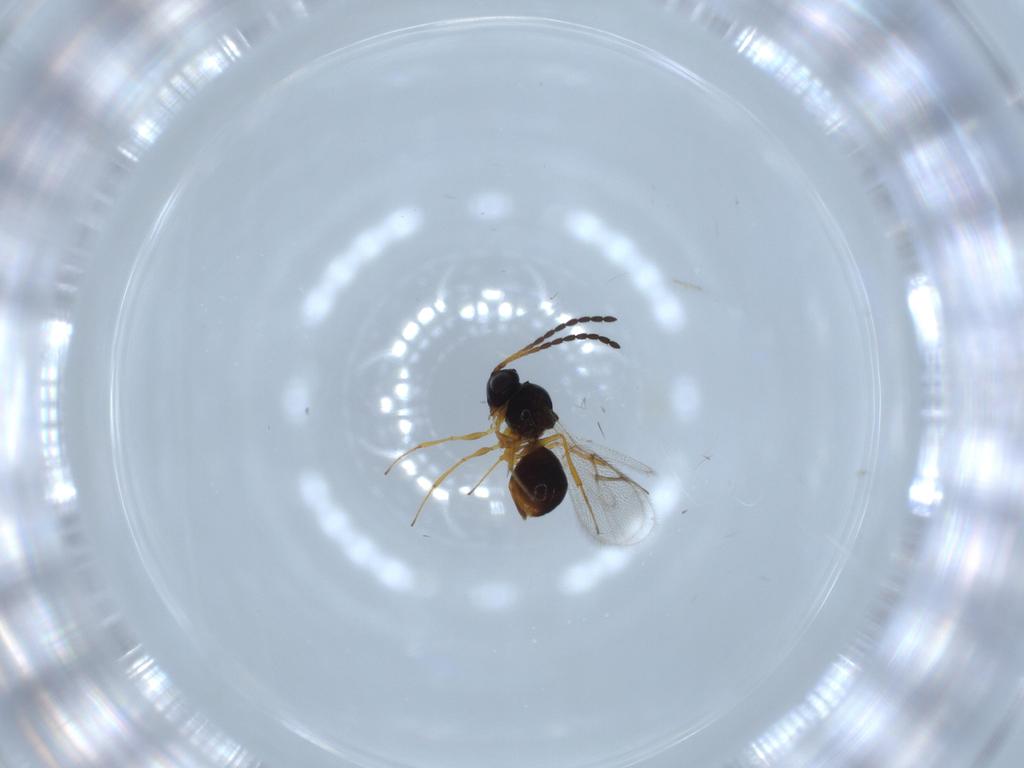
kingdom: Animalia
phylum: Arthropoda
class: Insecta
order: Hymenoptera
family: Figitidae
